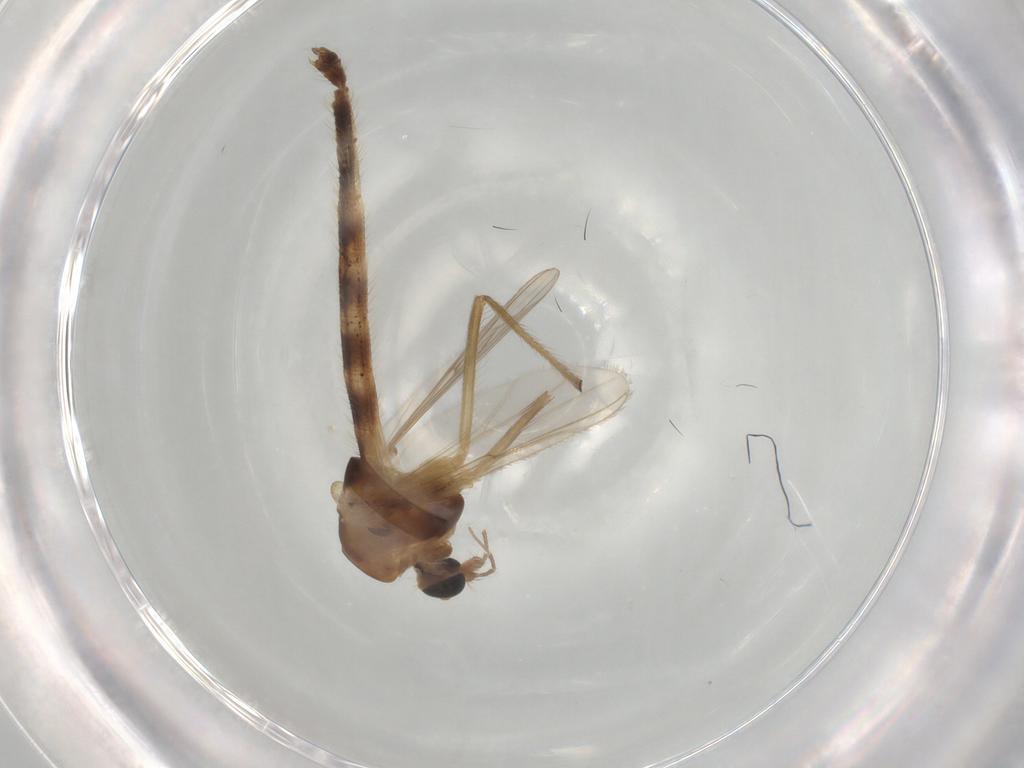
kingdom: Animalia
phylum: Arthropoda
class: Insecta
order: Diptera
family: Chironomidae
